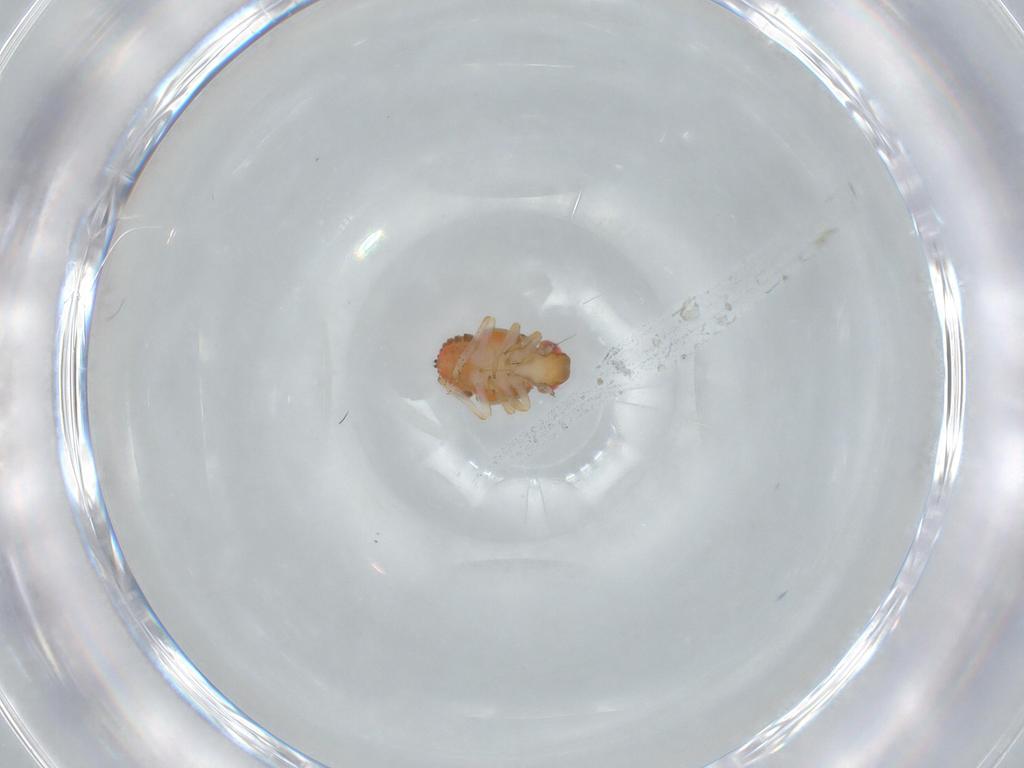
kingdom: Animalia
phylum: Arthropoda
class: Insecta
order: Hemiptera
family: Issidae
